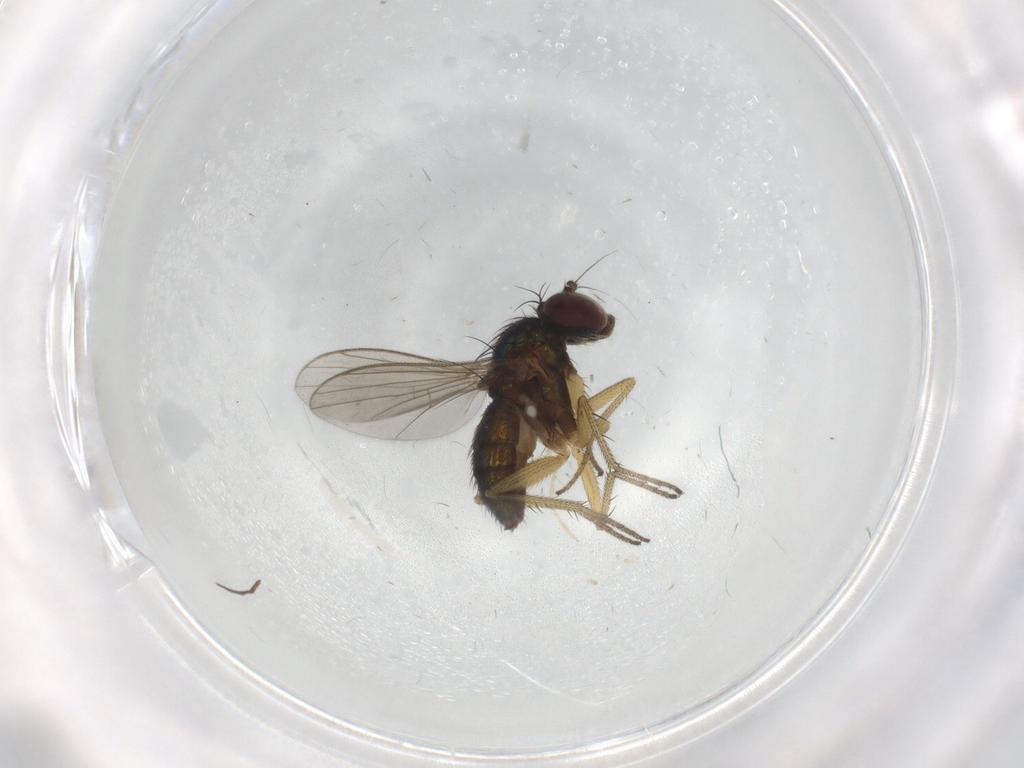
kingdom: Animalia
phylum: Arthropoda
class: Insecta
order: Diptera
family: Chironomidae
